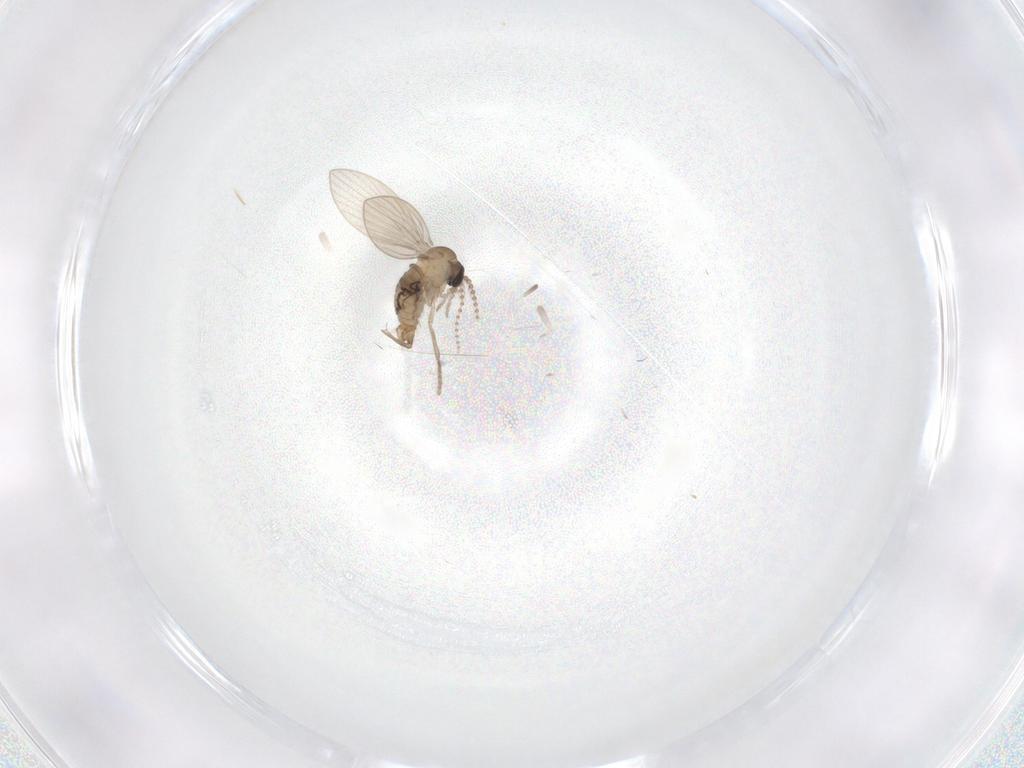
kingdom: Animalia
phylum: Arthropoda
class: Insecta
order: Diptera
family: Psychodidae
